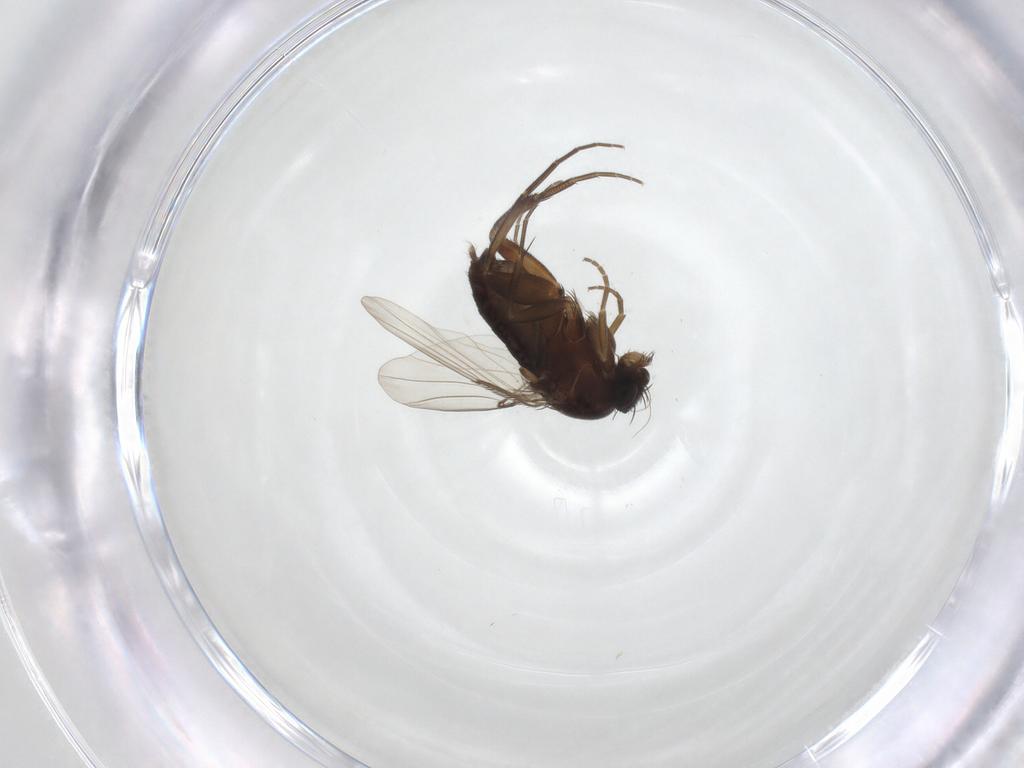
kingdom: Animalia
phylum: Arthropoda
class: Insecta
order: Diptera
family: Phoridae
